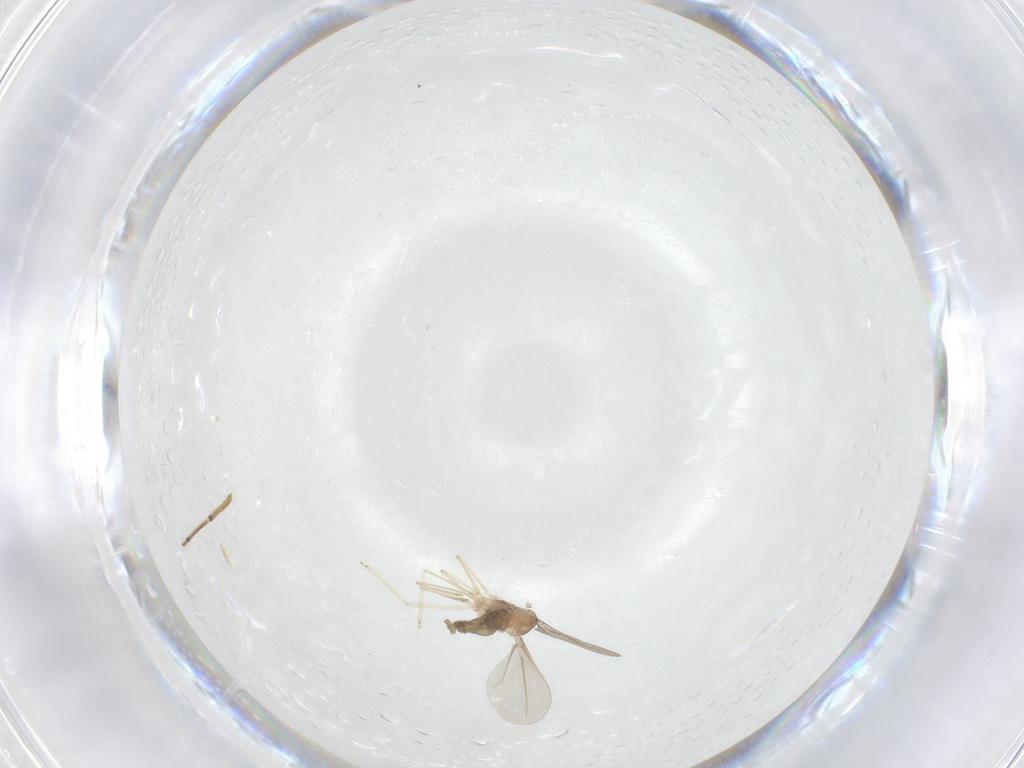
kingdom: Animalia
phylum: Arthropoda
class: Insecta
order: Diptera
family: Cecidomyiidae
